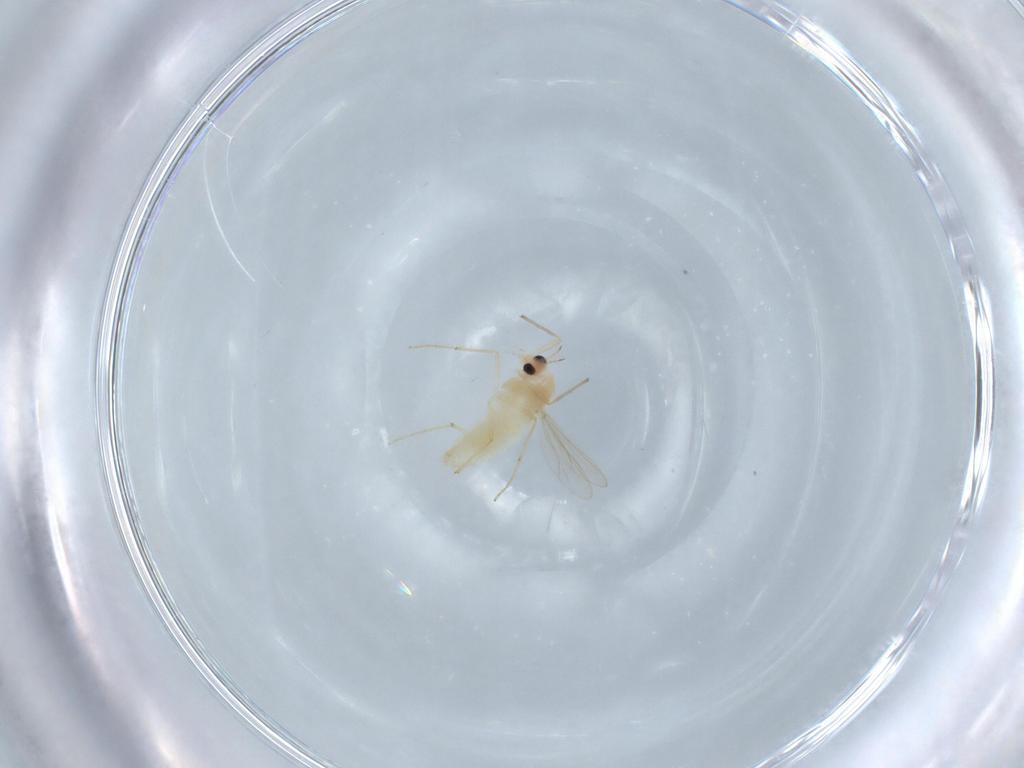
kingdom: Animalia
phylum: Arthropoda
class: Insecta
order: Diptera
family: Chironomidae
